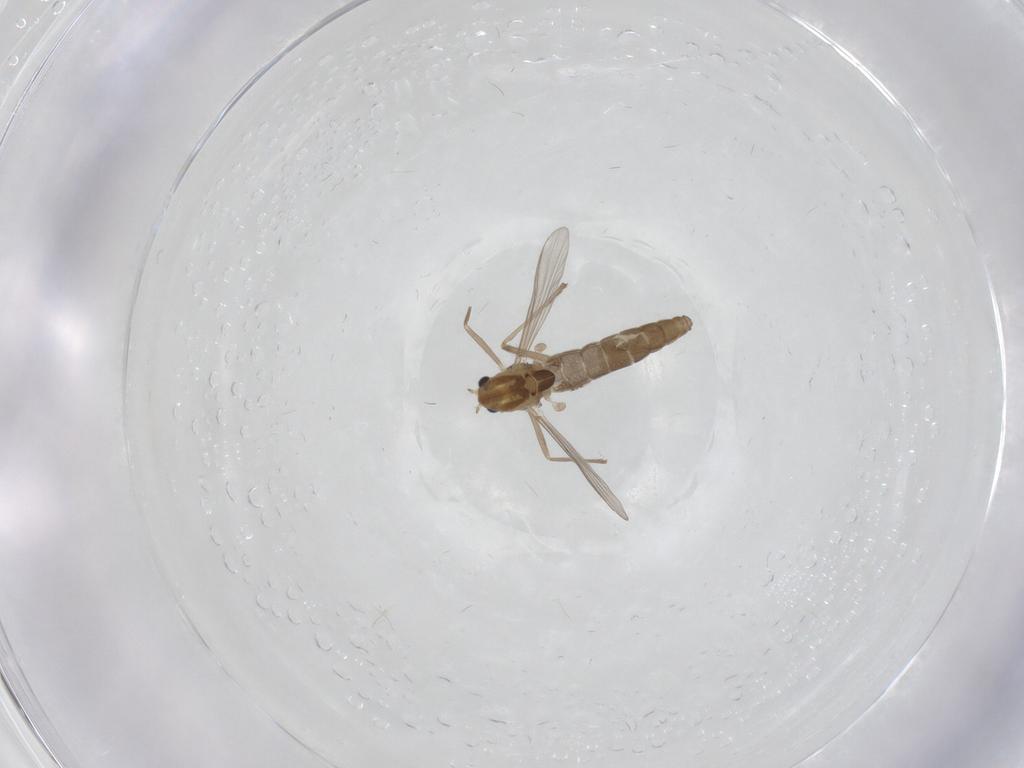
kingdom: Animalia
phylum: Arthropoda
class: Insecta
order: Diptera
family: Chironomidae
